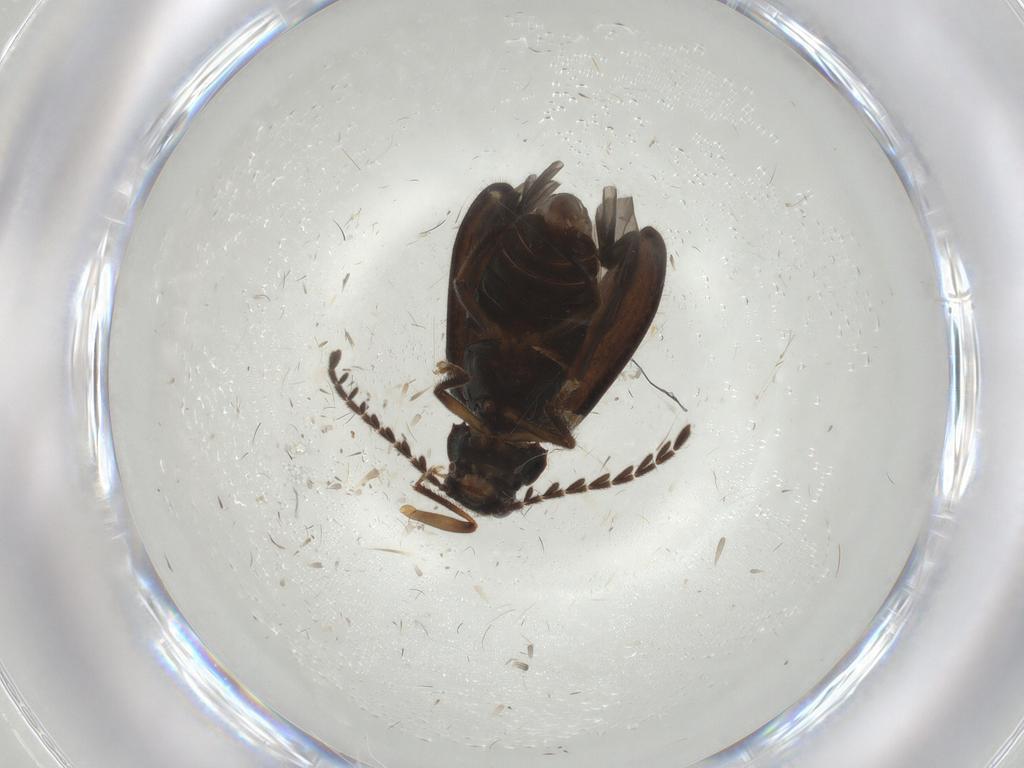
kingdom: Animalia
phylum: Arthropoda
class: Insecta
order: Coleoptera
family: Ptilodactylidae
